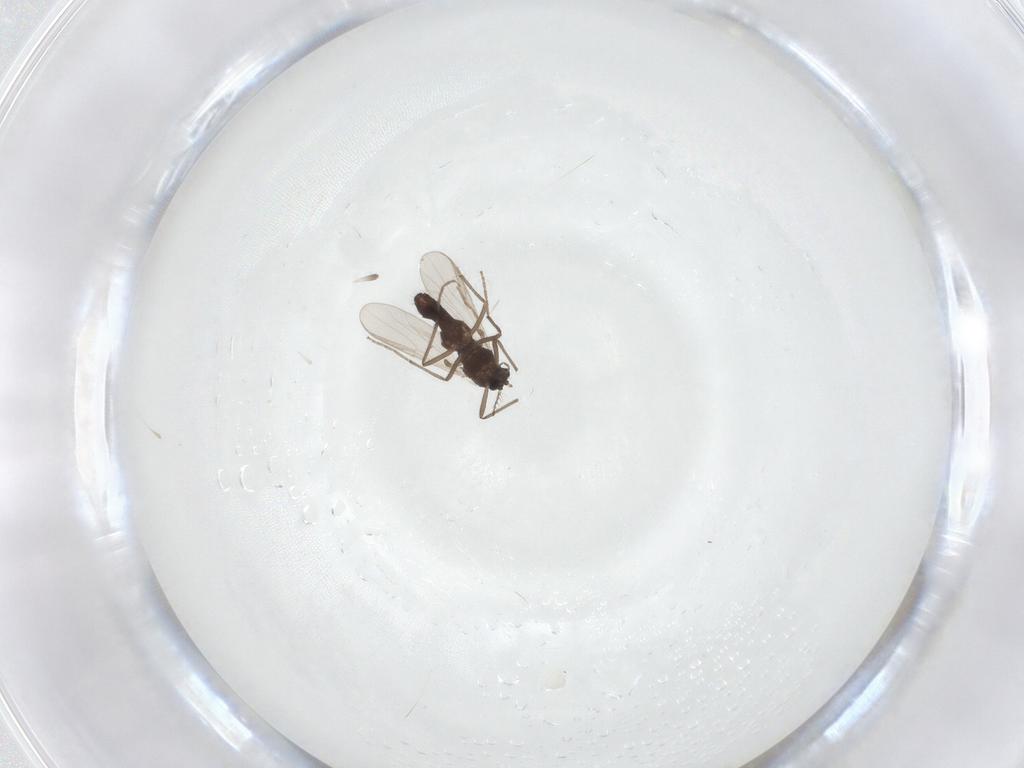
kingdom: Animalia
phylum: Arthropoda
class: Insecta
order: Diptera
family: Chironomidae
